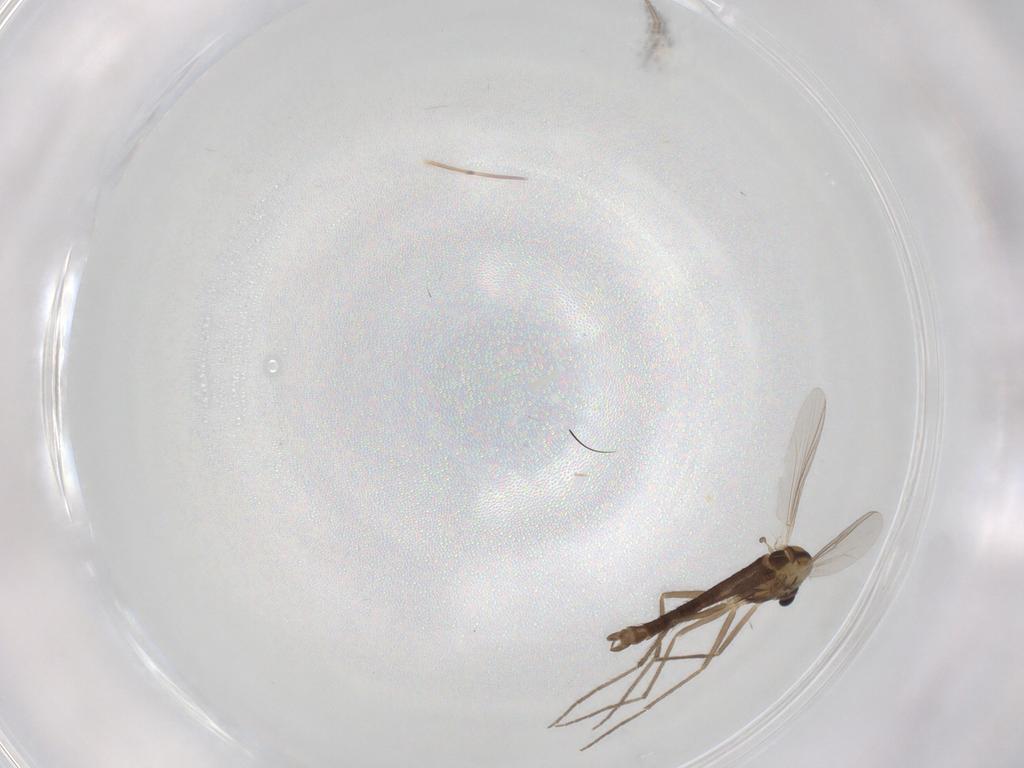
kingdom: Animalia
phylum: Arthropoda
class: Insecta
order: Diptera
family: Chironomidae
